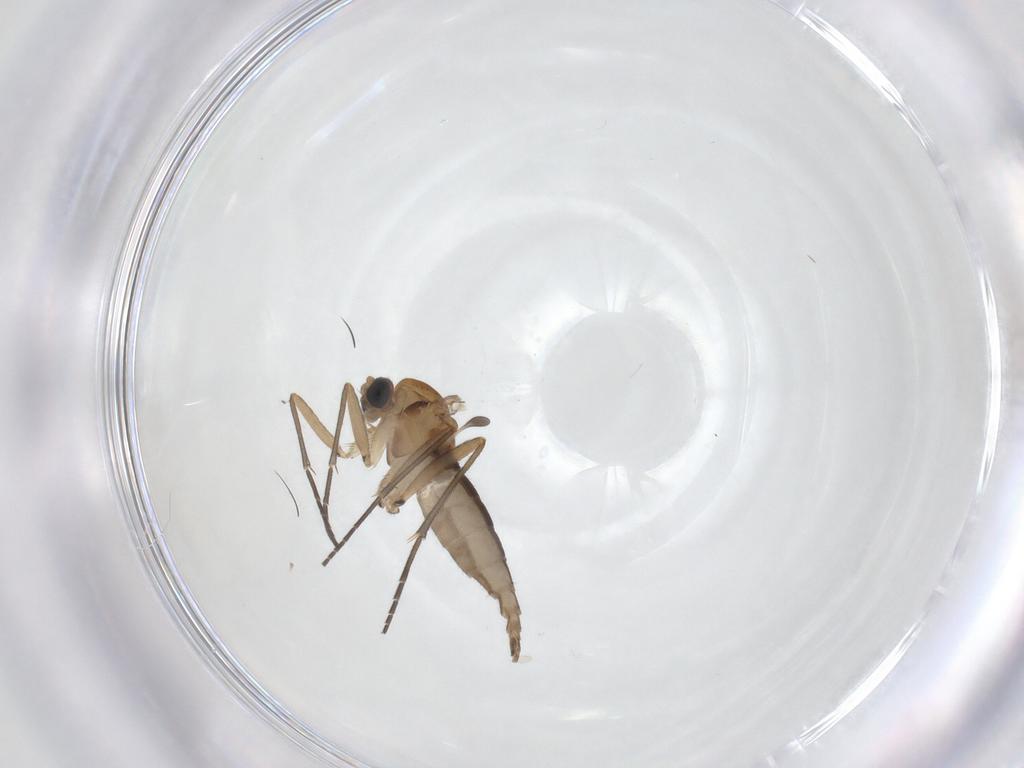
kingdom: Animalia
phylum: Arthropoda
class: Insecta
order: Diptera
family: Sciaridae
